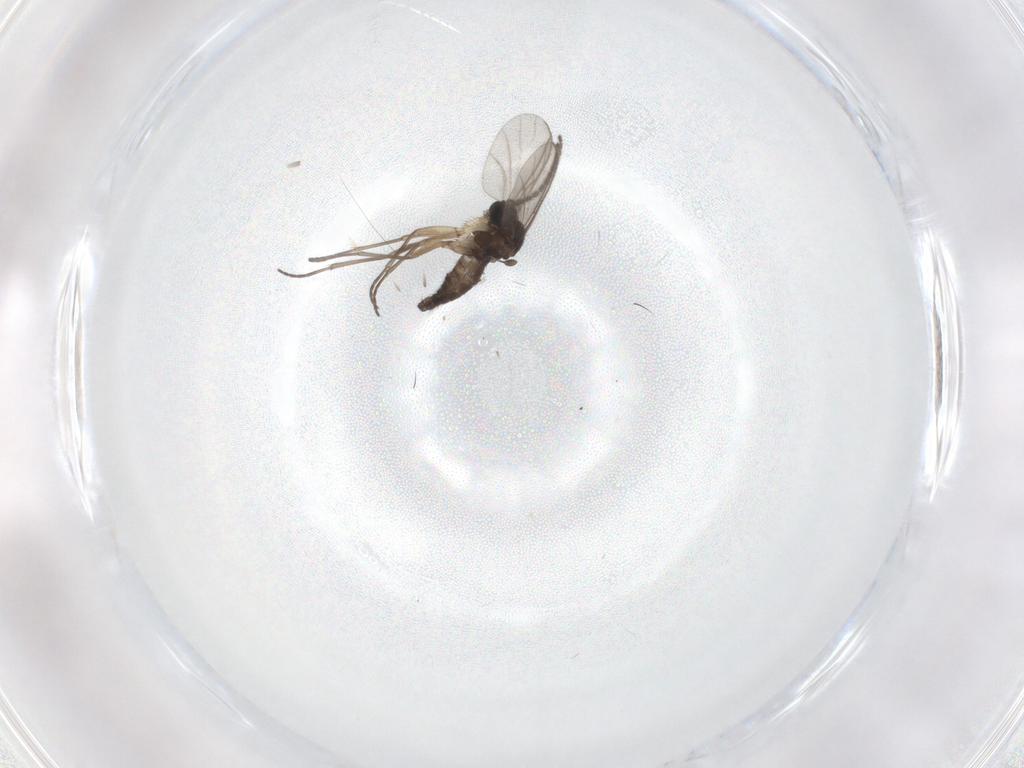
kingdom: Animalia
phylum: Arthropoda
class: Insecta
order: Diptera
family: Sciaridae
